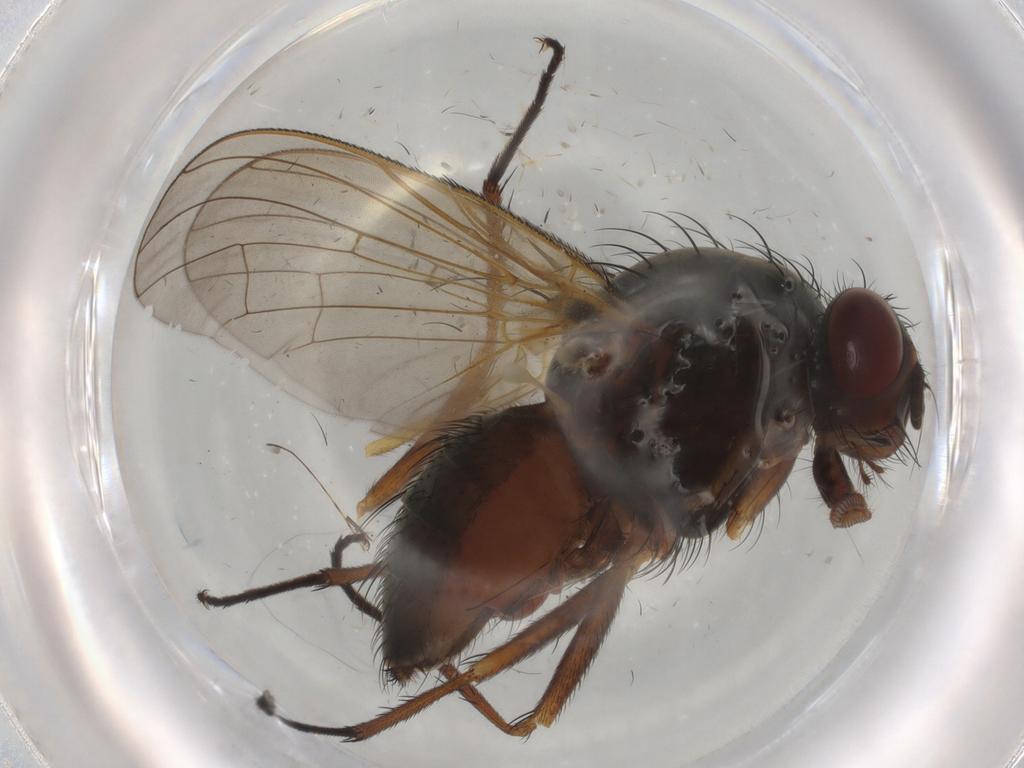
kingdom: Animalia
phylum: Arthropoda
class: Insecta
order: Diptera
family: Anthomyiidae
